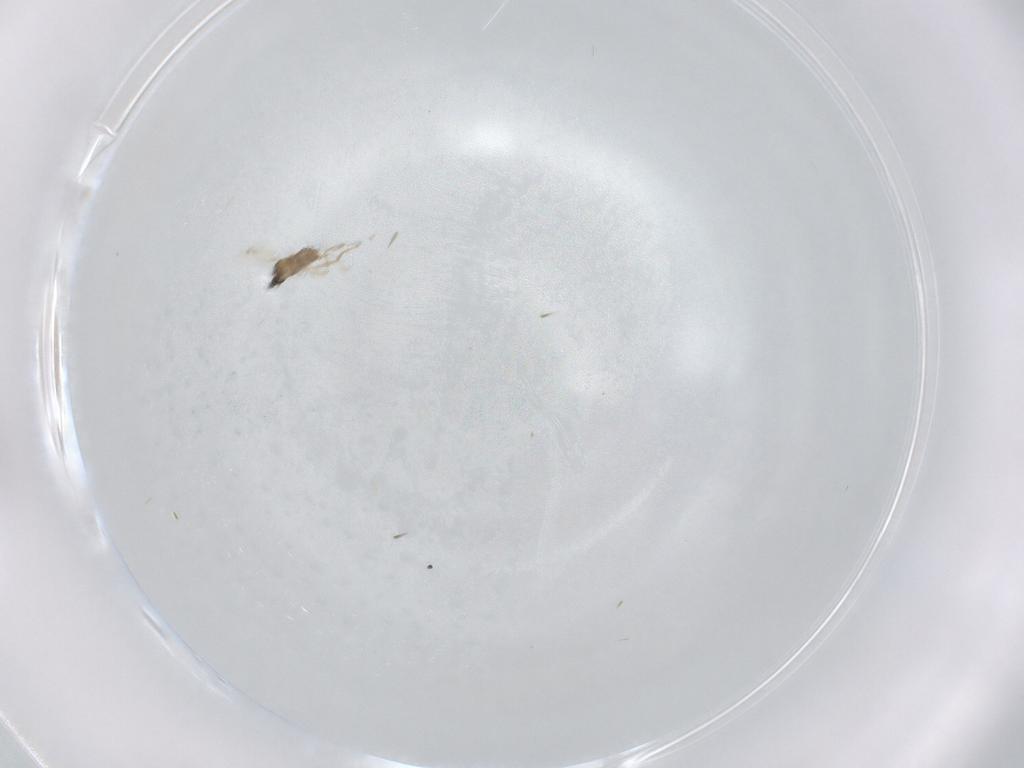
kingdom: Animalia
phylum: Arthropoda
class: Insecta
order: Diptera
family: Cecidomyiidae
